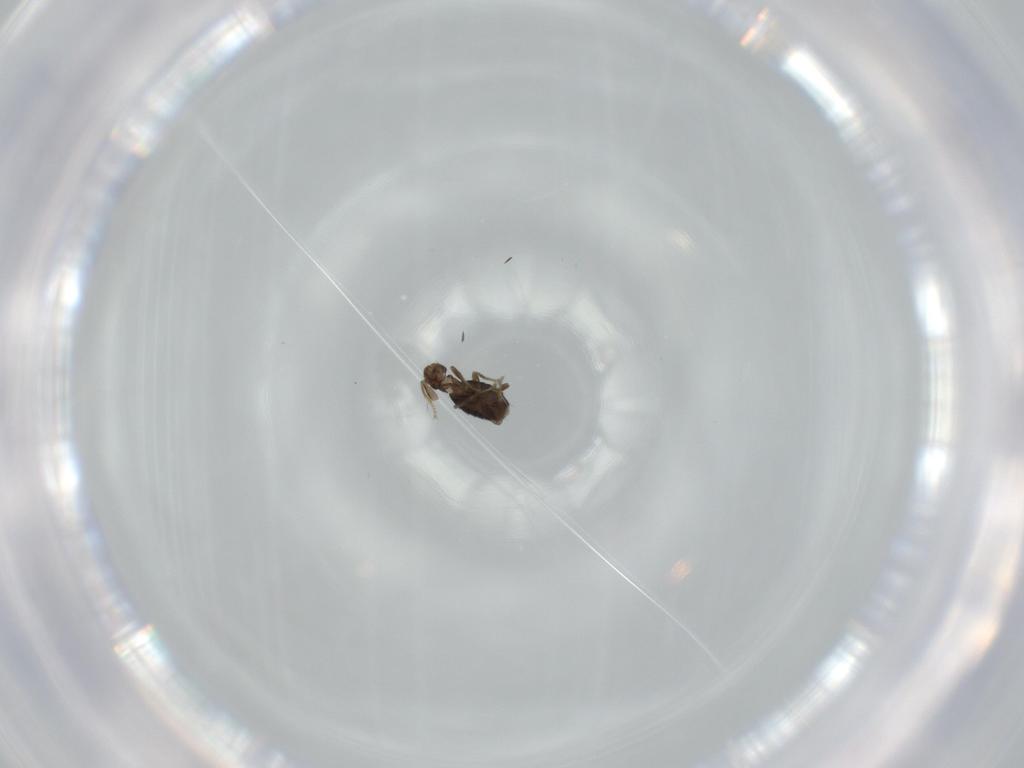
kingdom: Animalia
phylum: Arthropoda
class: Insecta
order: Diptera
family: Phoridae
